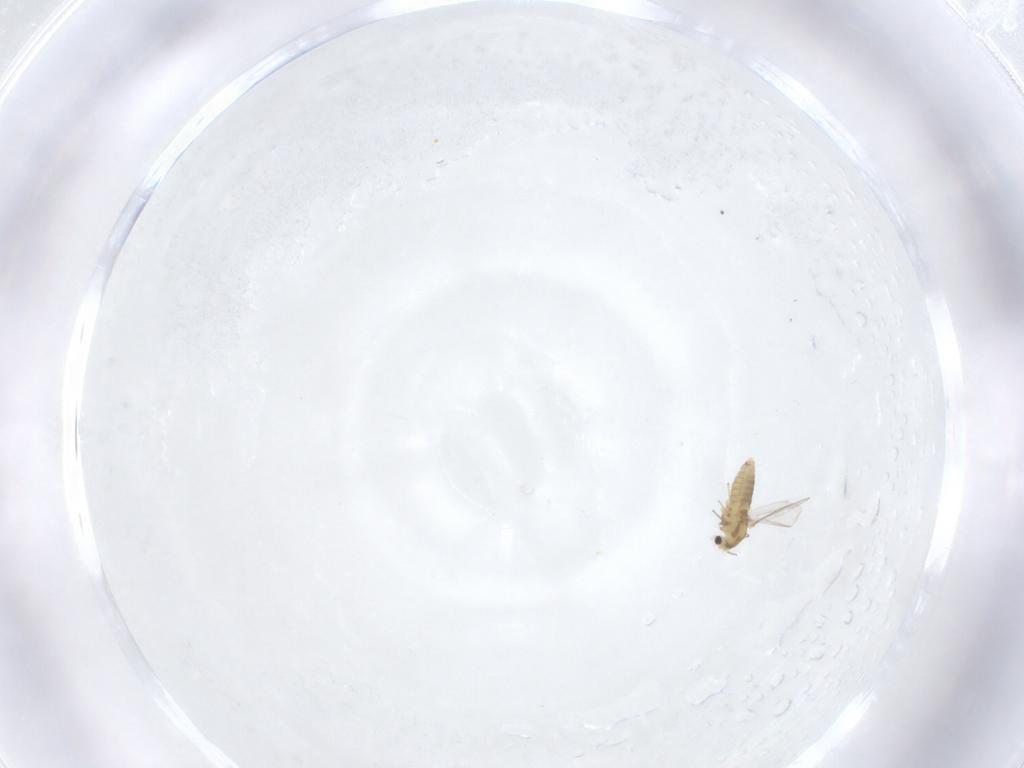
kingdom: Animalia
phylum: Arthropoda
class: Insecta
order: Diptera
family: Chironomidae
